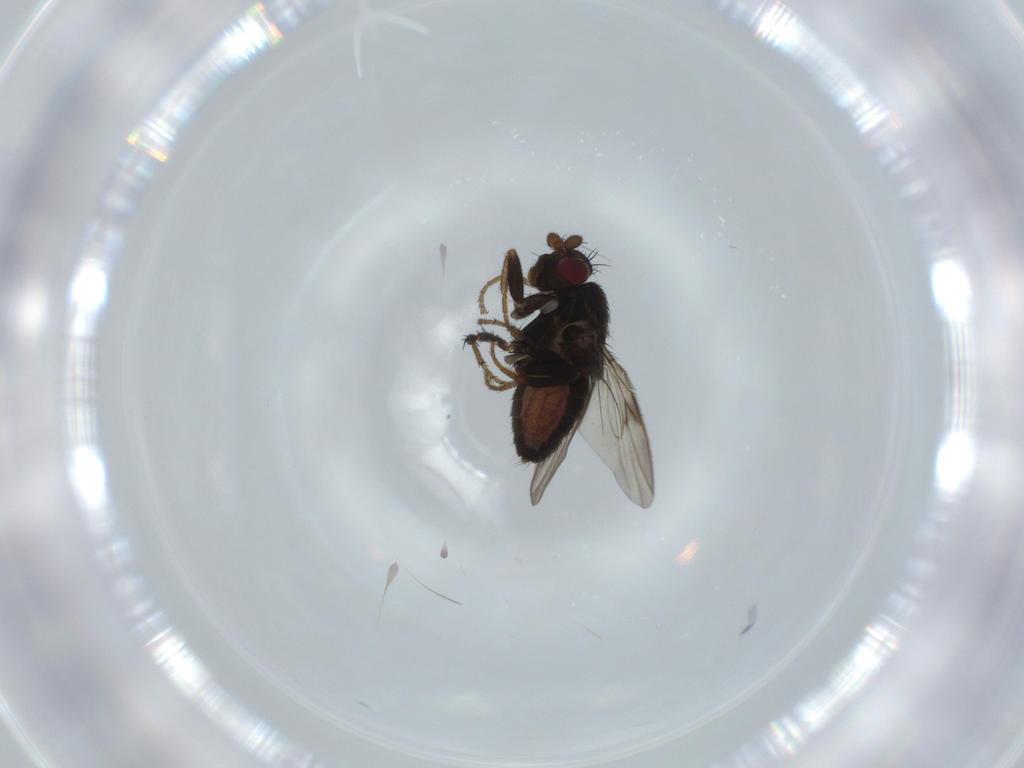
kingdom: Animalia
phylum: Arthropoda
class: Insecta
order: Diptera
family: Sphaeroceridae
